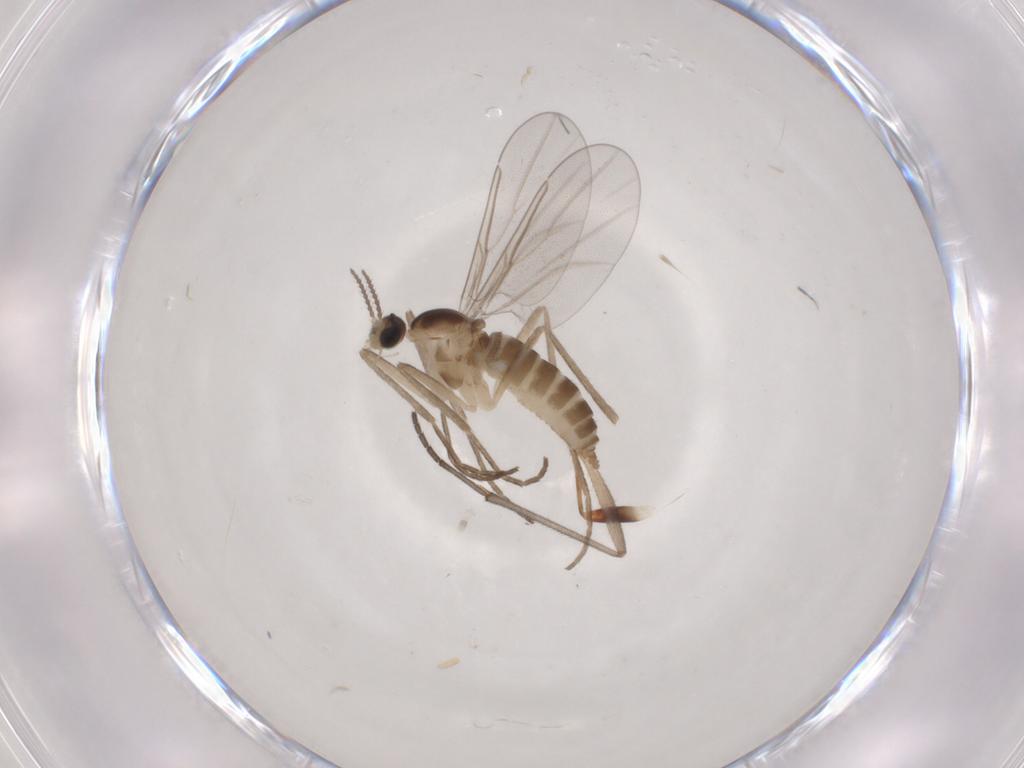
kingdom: Animalia
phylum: Arthropoda
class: Insecta
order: Diptera
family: Cecidomyiidae
